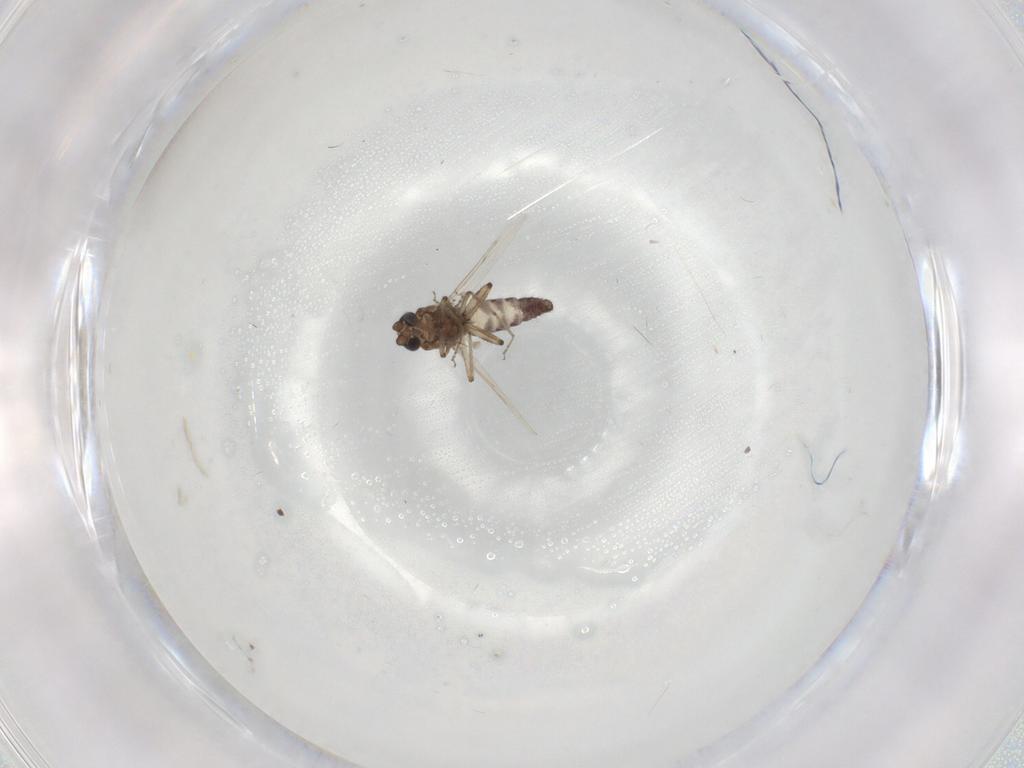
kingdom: Animalia
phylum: Arthropoda
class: Insecta
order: Diptera
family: Ceratopogonidae
